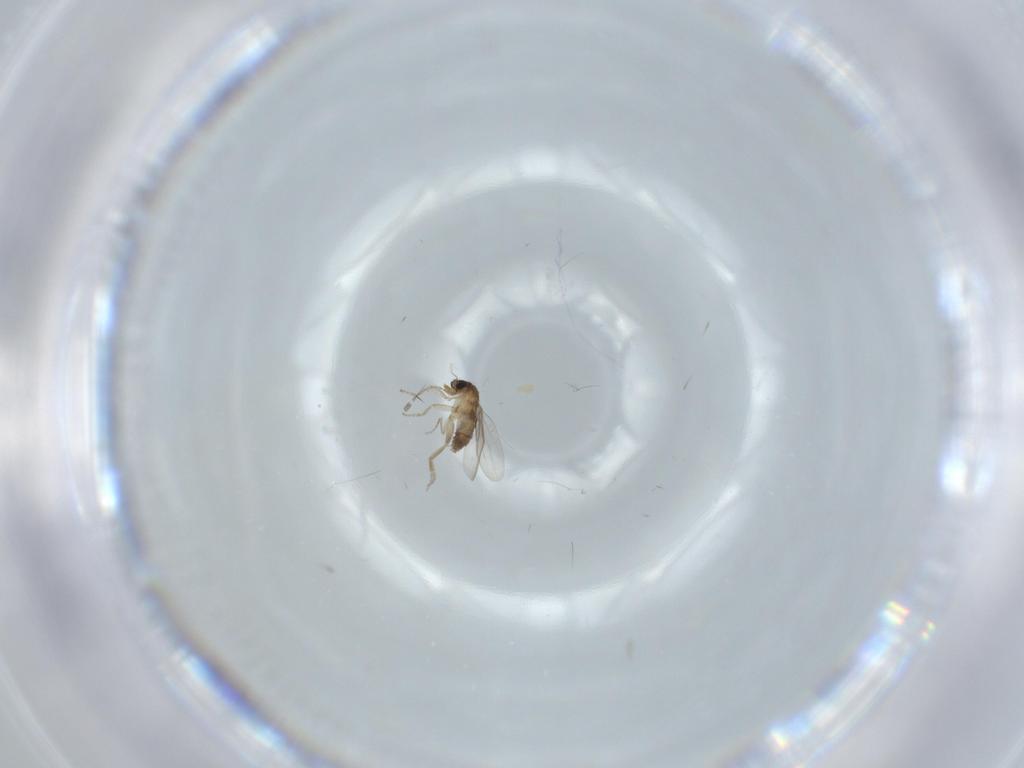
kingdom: Animalia
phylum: Arthropoda
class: Insecta
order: Diptera
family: Phoridae
